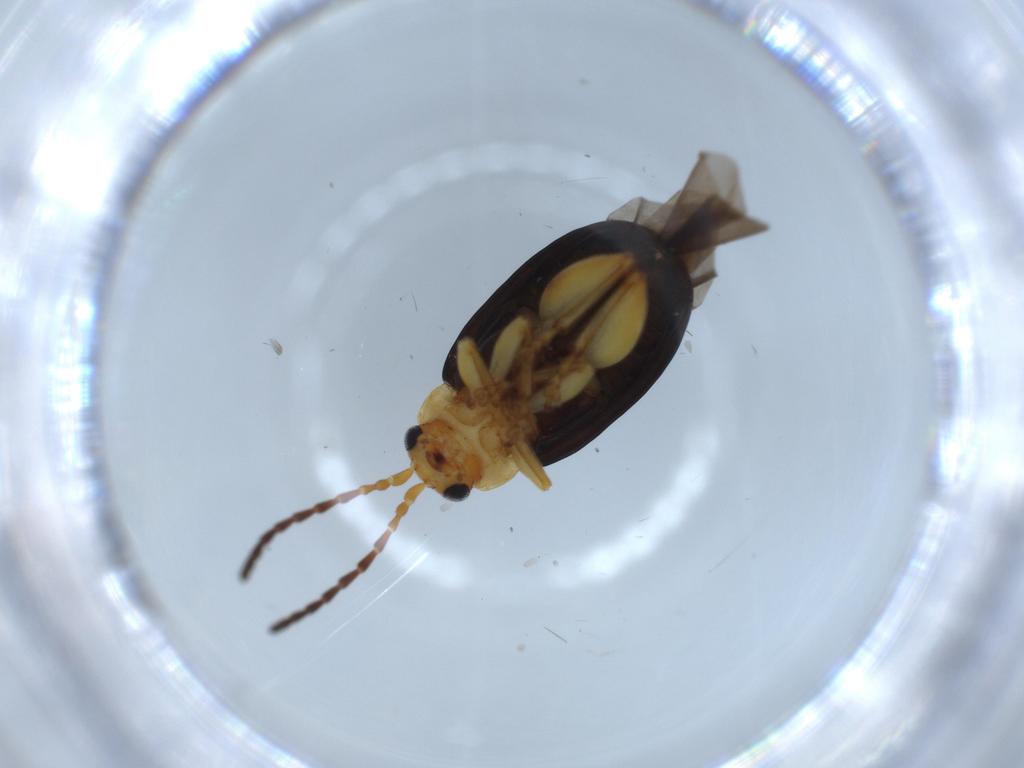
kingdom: Animalia
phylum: Arthropoda
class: Insecta
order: Coleoptera
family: Chrysomelidae
